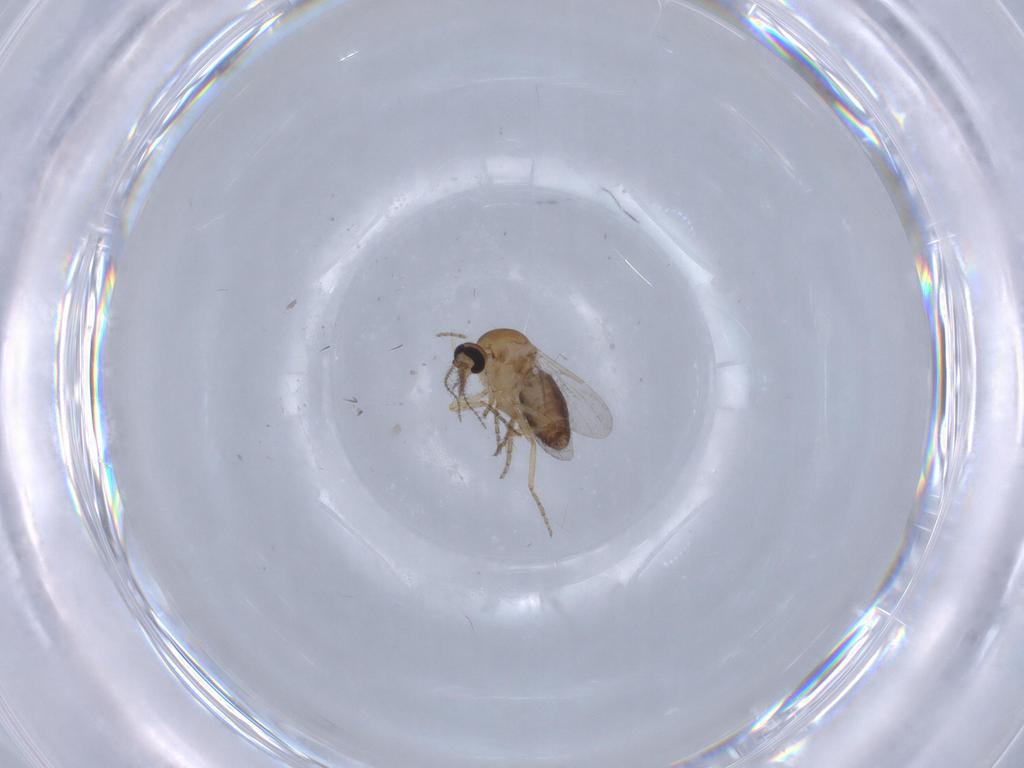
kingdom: Animalia
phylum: Arthropoda
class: Insecta
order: Diptera
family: Ceratopogonidae
